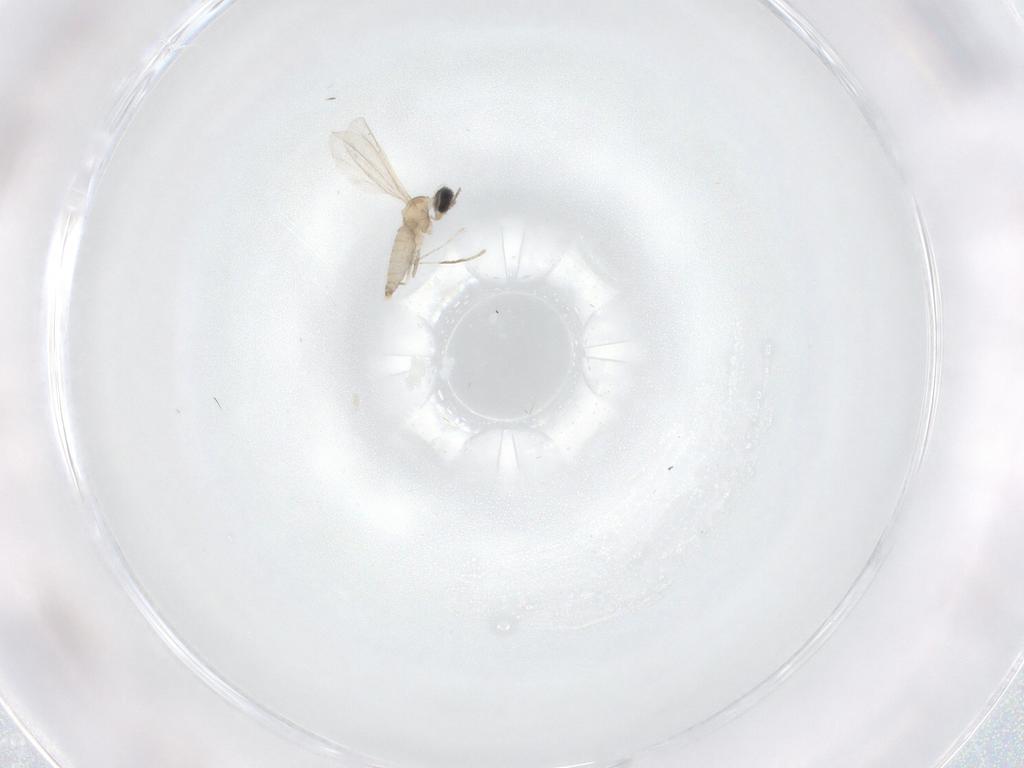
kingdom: Animalia
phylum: Arthropoda
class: Insecta
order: Diptera
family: Cecidomyiidae
